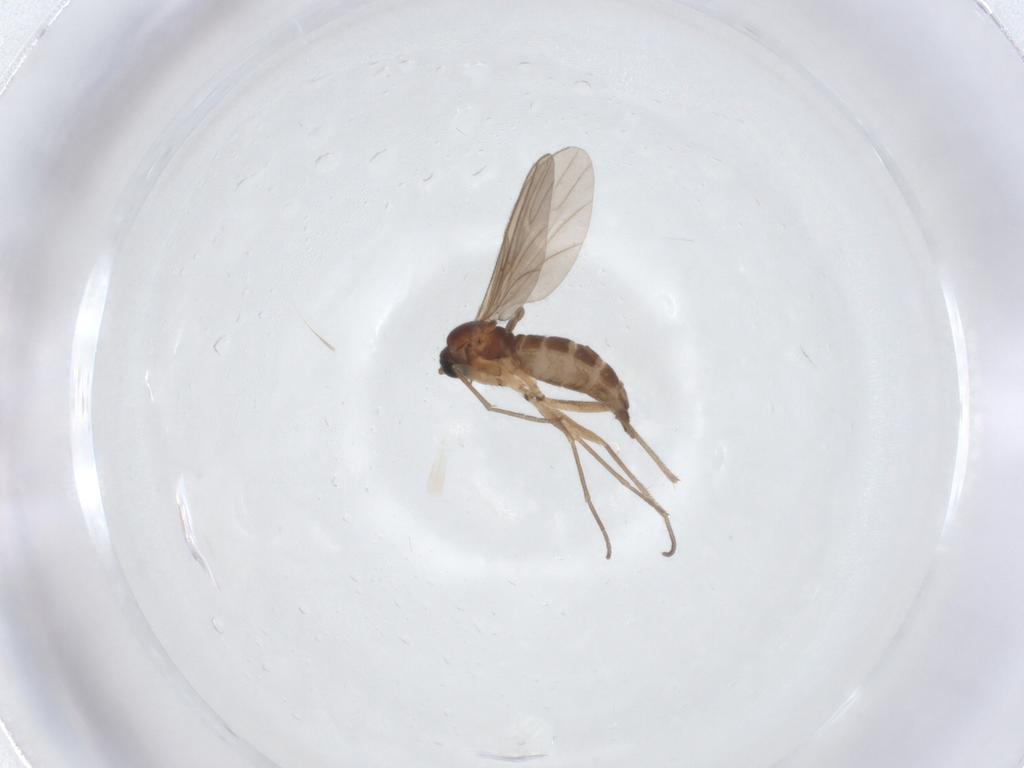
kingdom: Animalia
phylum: Arthropoda
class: Insecta
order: Diptera
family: Sciaridae
